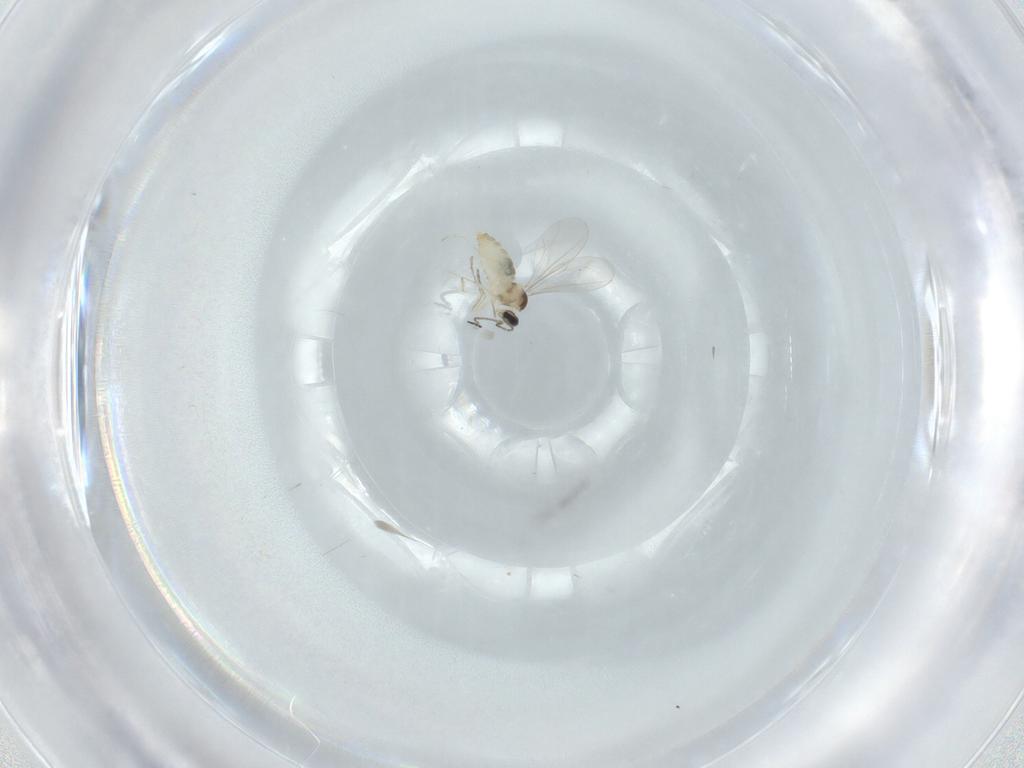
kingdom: Animalia
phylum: Arthropoda
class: Insecta
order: Diptera
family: Cecidomyiidae
